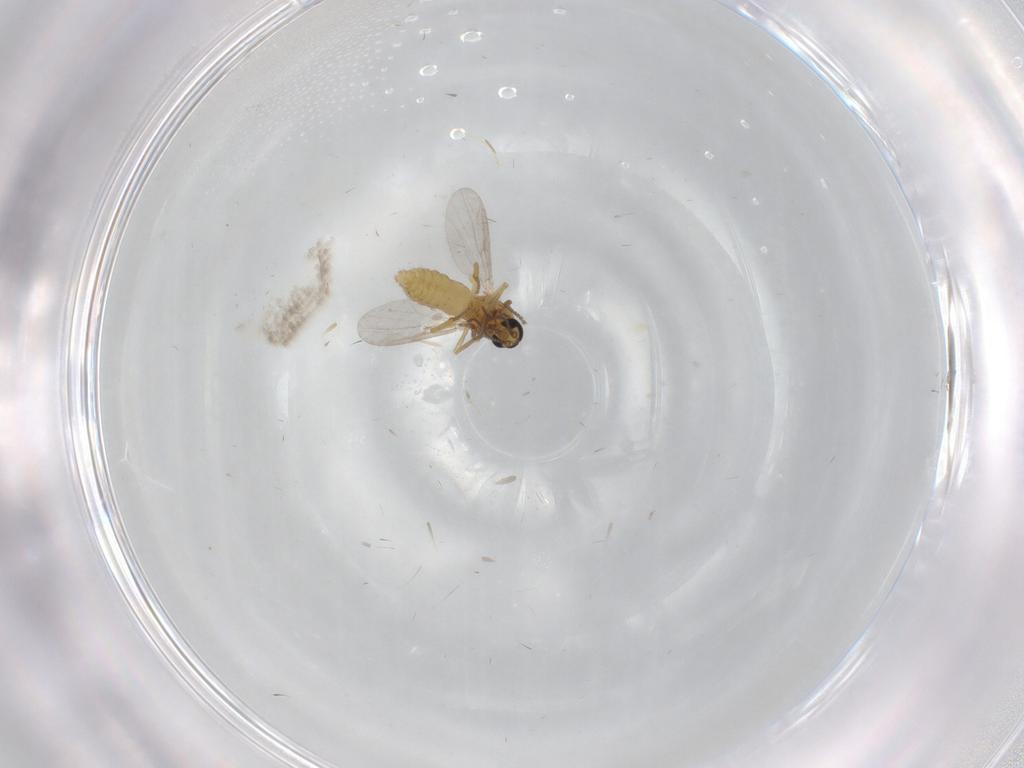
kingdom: Animalia
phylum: Arthropoda
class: Insecta
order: Diptera
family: Ceratopogonidae
